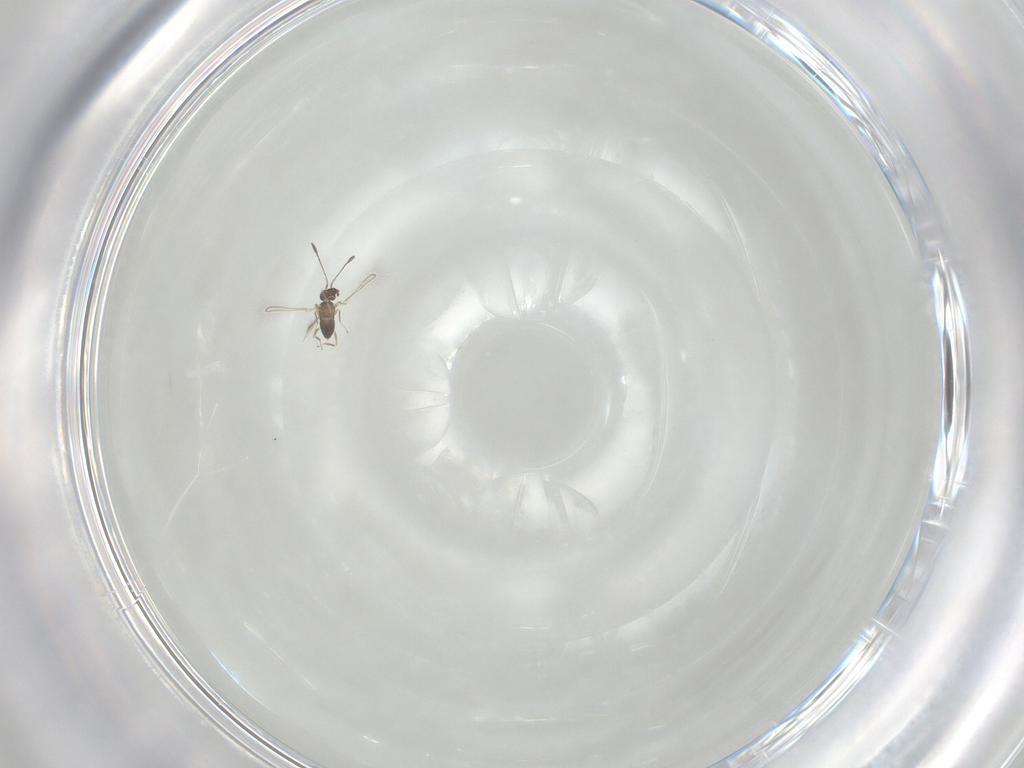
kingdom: Animalia
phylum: Arthropoda
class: Insecta
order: Hymenoptera
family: Mymaridae
